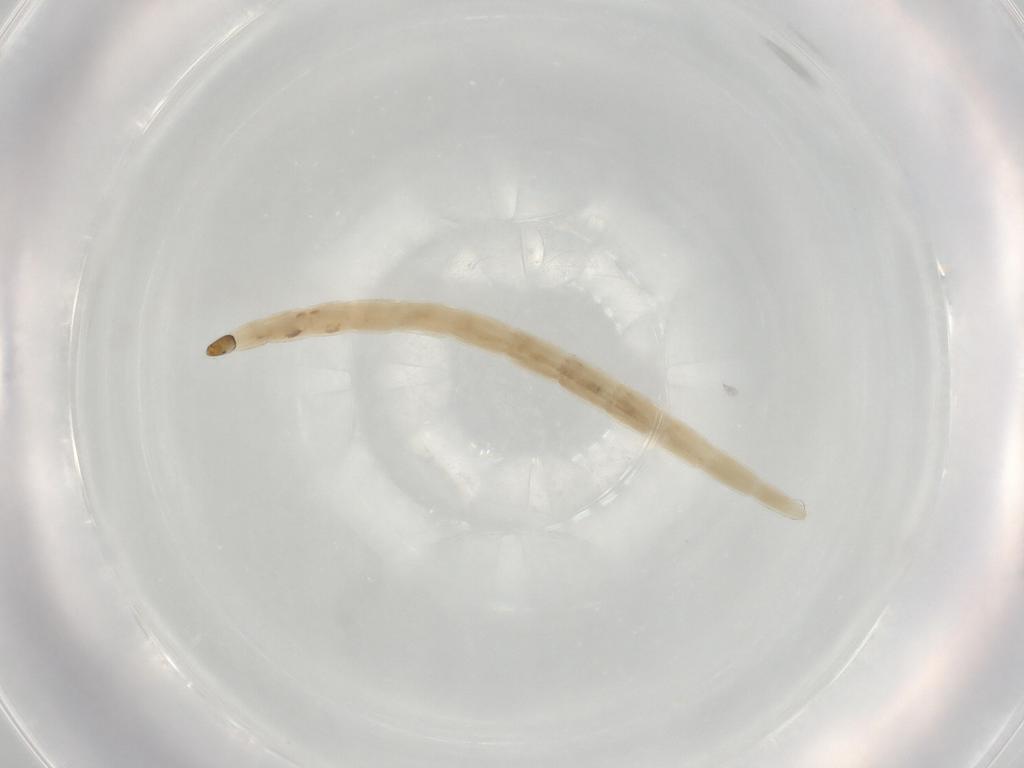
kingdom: Animalia
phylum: Arthropoda
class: Insecta
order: Diptera
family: Ceratopogonidae
